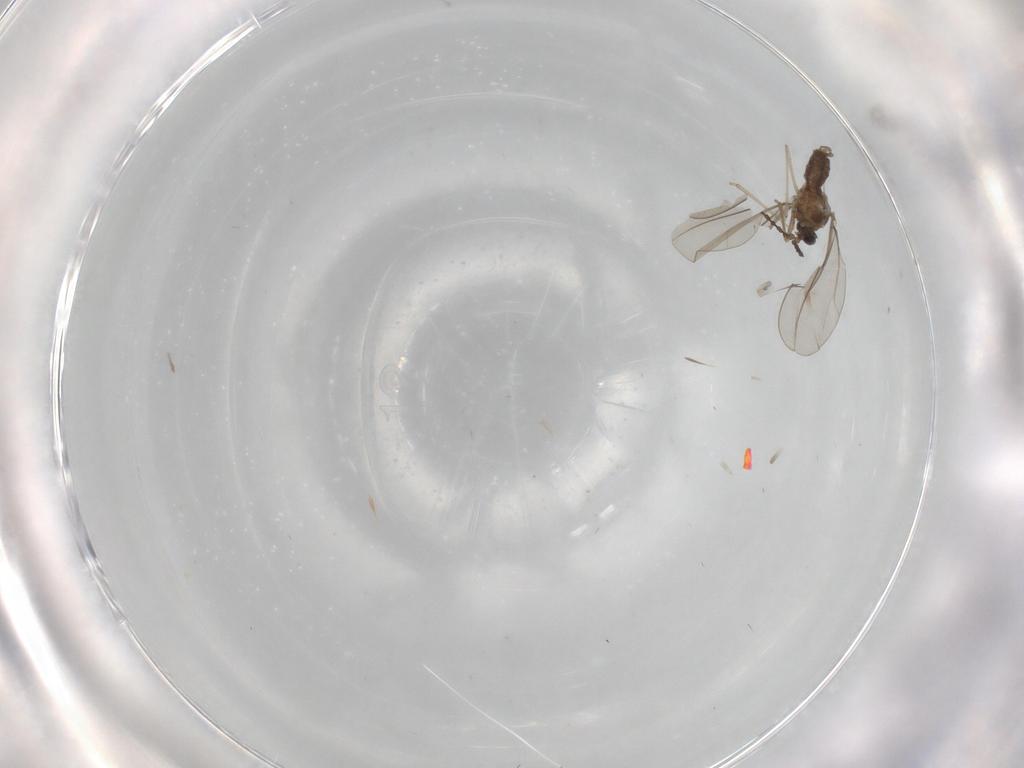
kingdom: Animalia
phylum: Arthropoda
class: Insecta
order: Diptera
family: Cecidomyiidae
